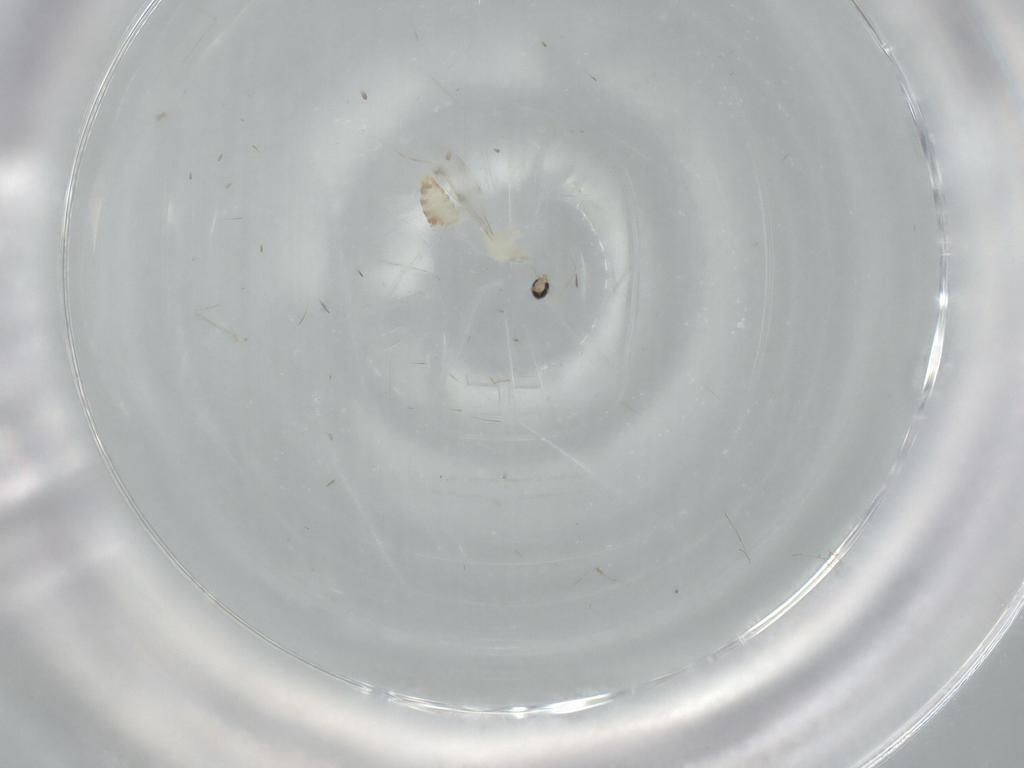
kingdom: Animalia
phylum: Arthropoda
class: Insecta
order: Diptera
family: Cecidomyiidae
